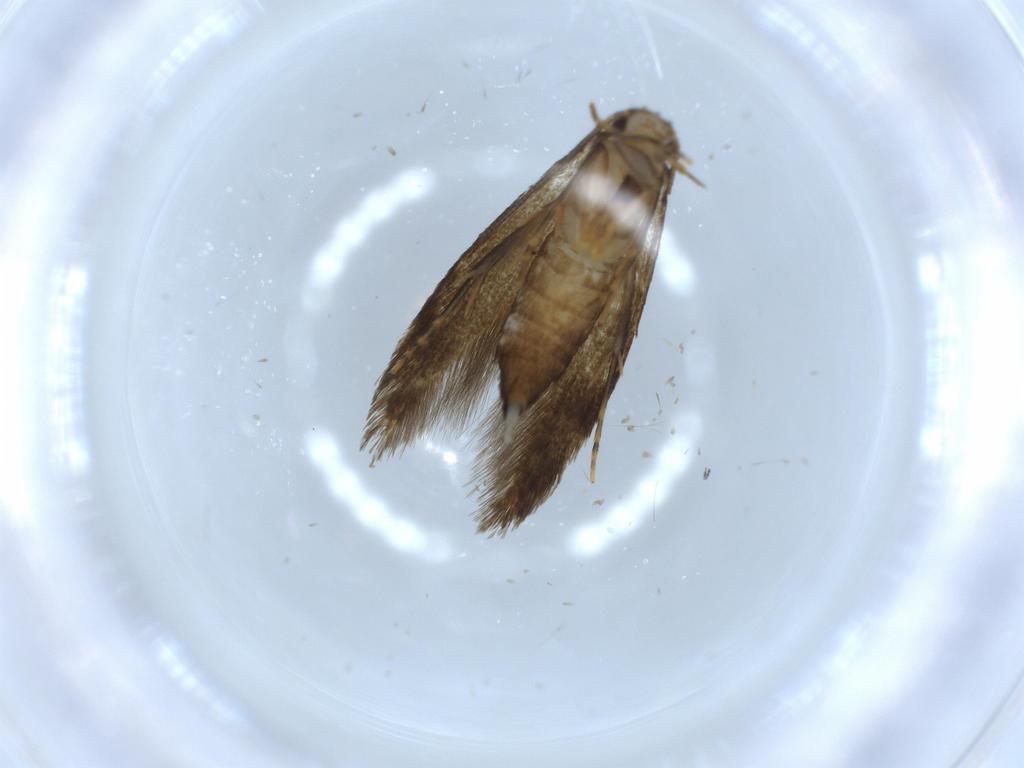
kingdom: Animalia
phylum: Arthropoda
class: Insecta
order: Lepidoptera
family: Tineidae
